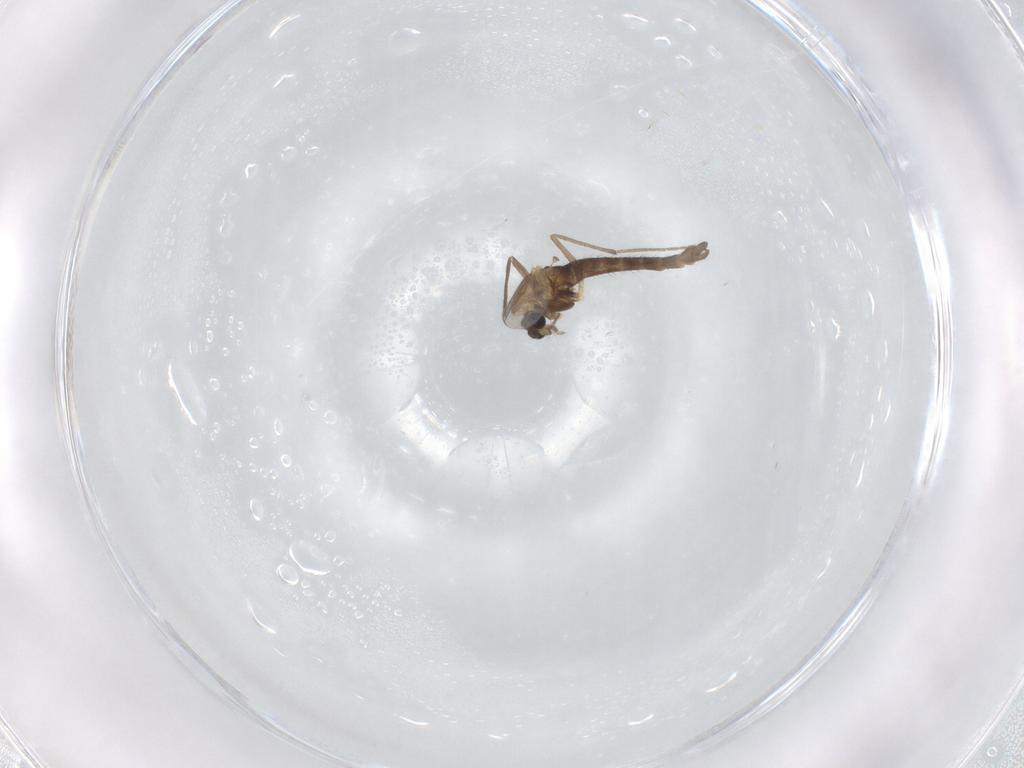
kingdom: Animalia
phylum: Arthropoda
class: Insecta
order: Diptera
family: Chironomidae
